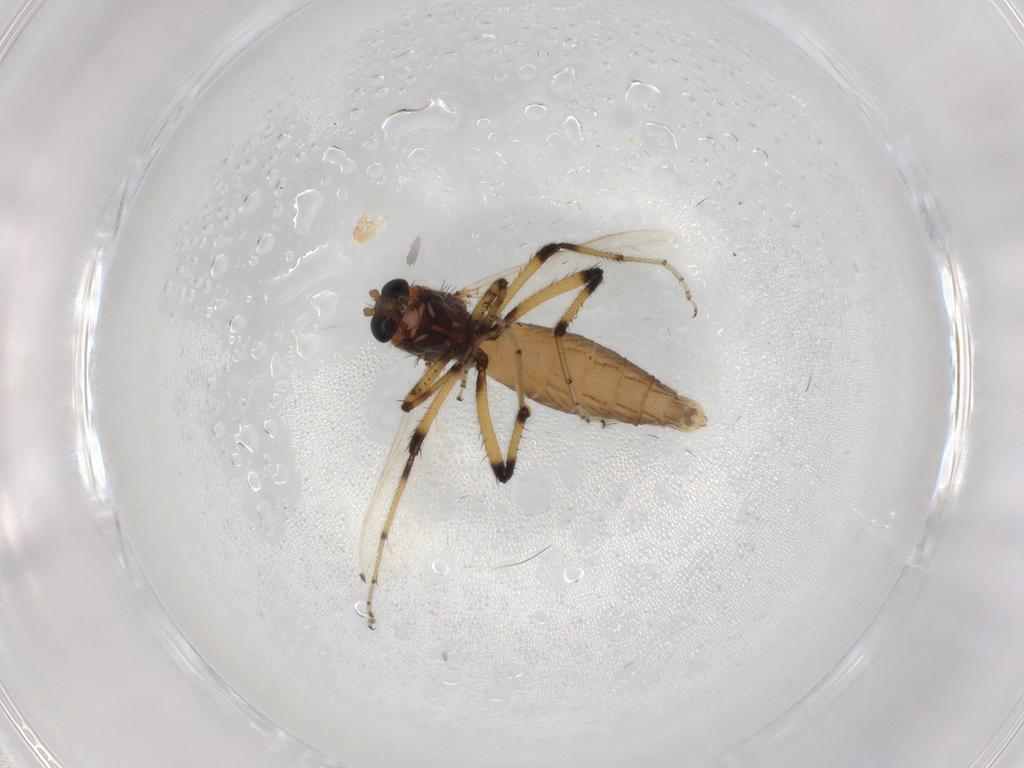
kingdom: Animalia
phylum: Arthropoda
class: Insecta
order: Diptera
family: Ceratopogonidae
